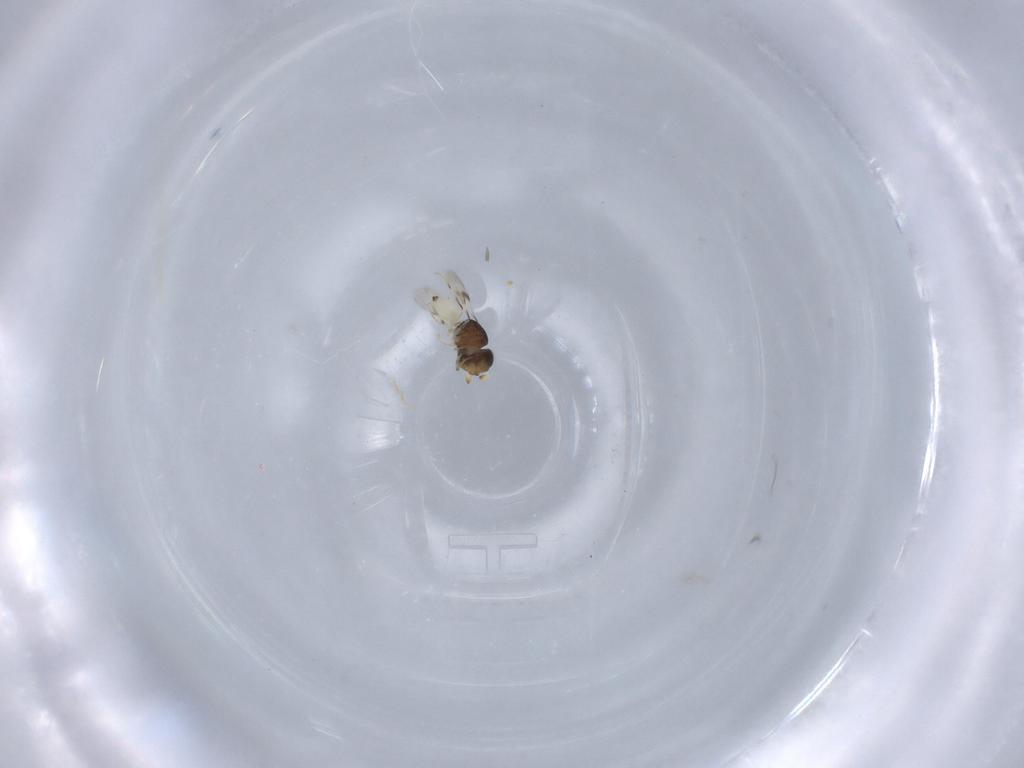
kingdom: Animalia
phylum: Arthropoda
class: Insecta
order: Hymenoptera
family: Scelionidae
